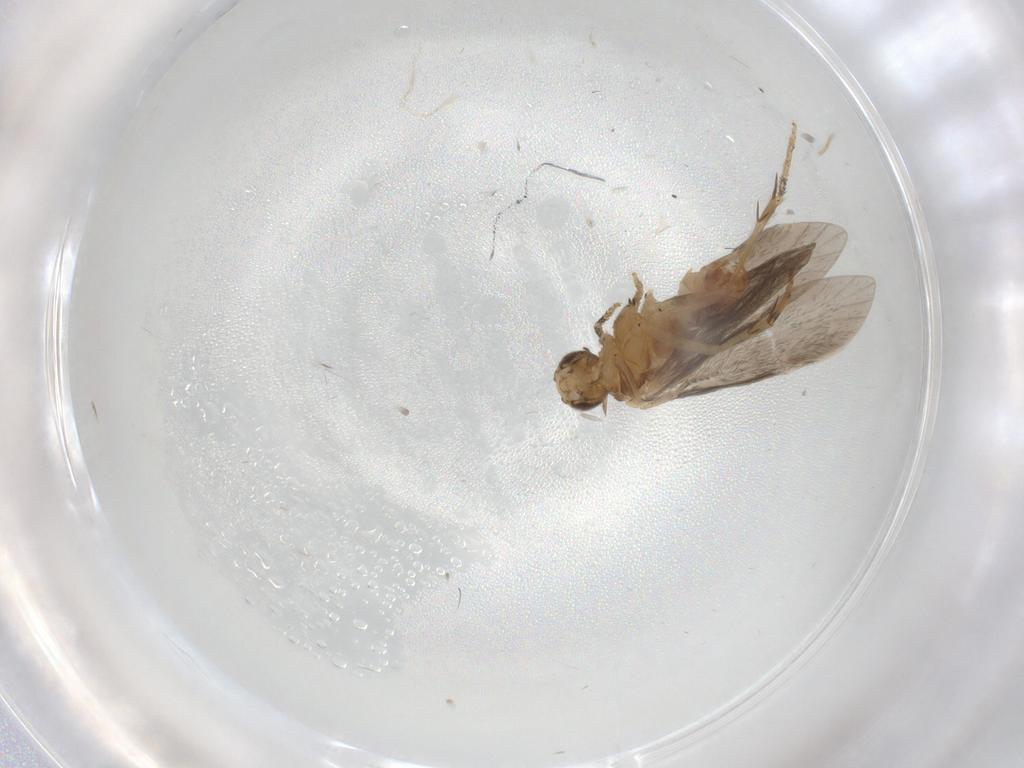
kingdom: Animalia
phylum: Arthropoda
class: Insecta
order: Trichoptera
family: Glossosomatidae
